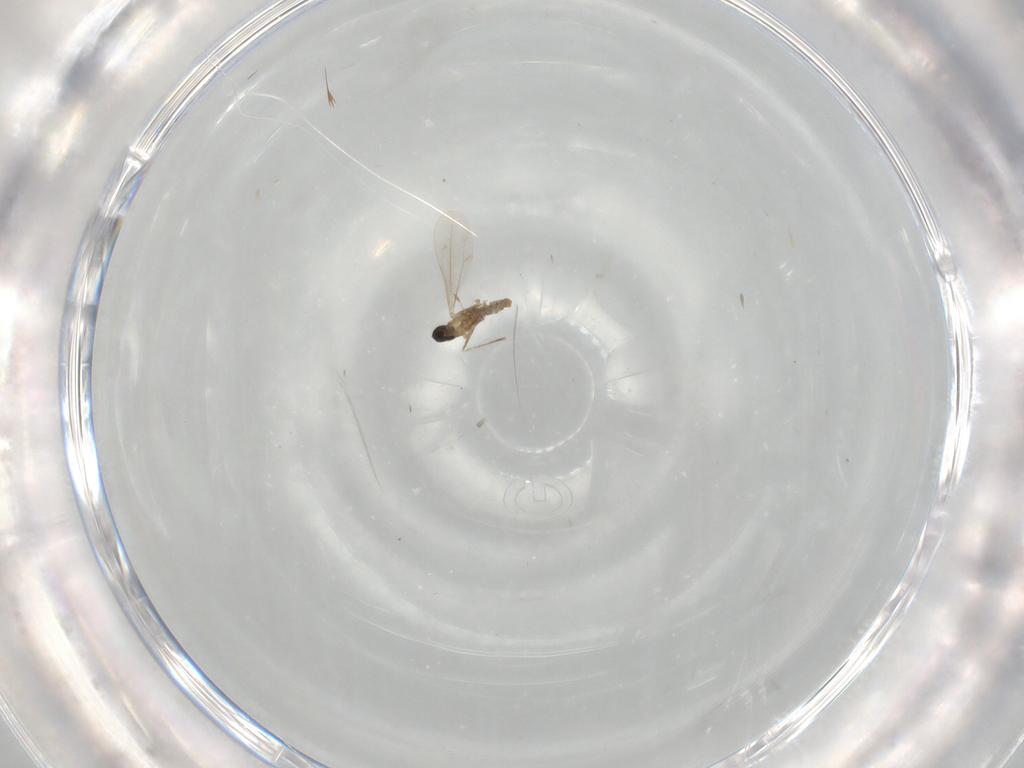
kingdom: Animalia
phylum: Arthropoda
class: Insecta
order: Diptera
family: Cecidomyiidae
